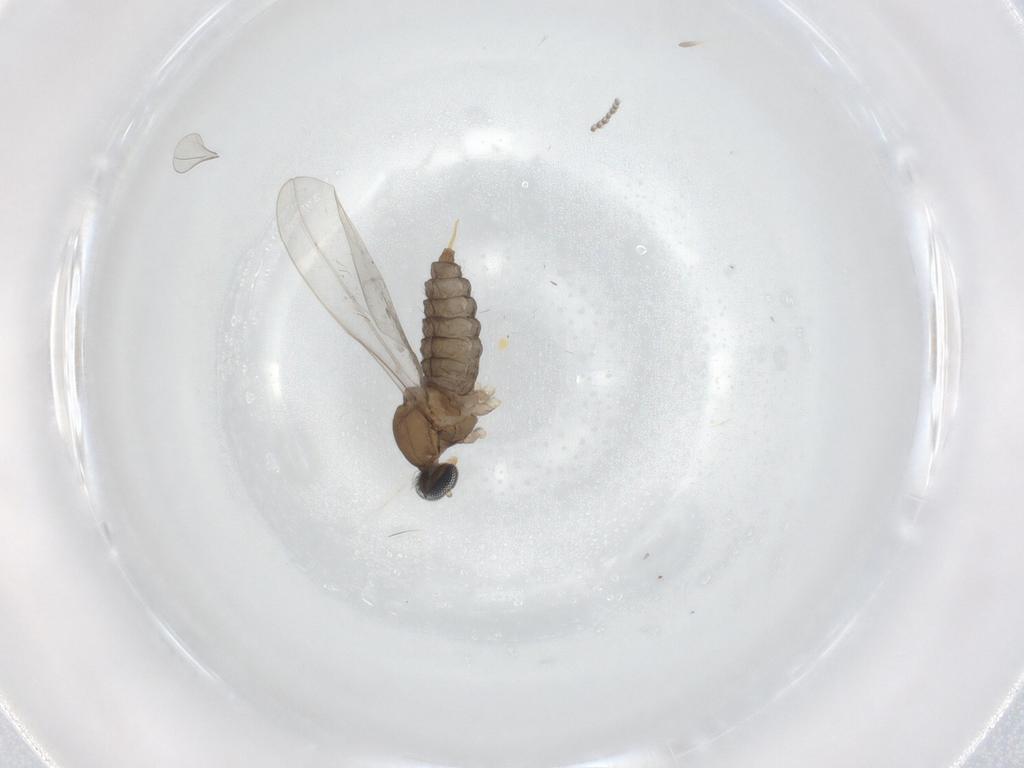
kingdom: Animalia
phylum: Arthropoda
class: Insecta
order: Diptera
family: Cecidomyiidae
